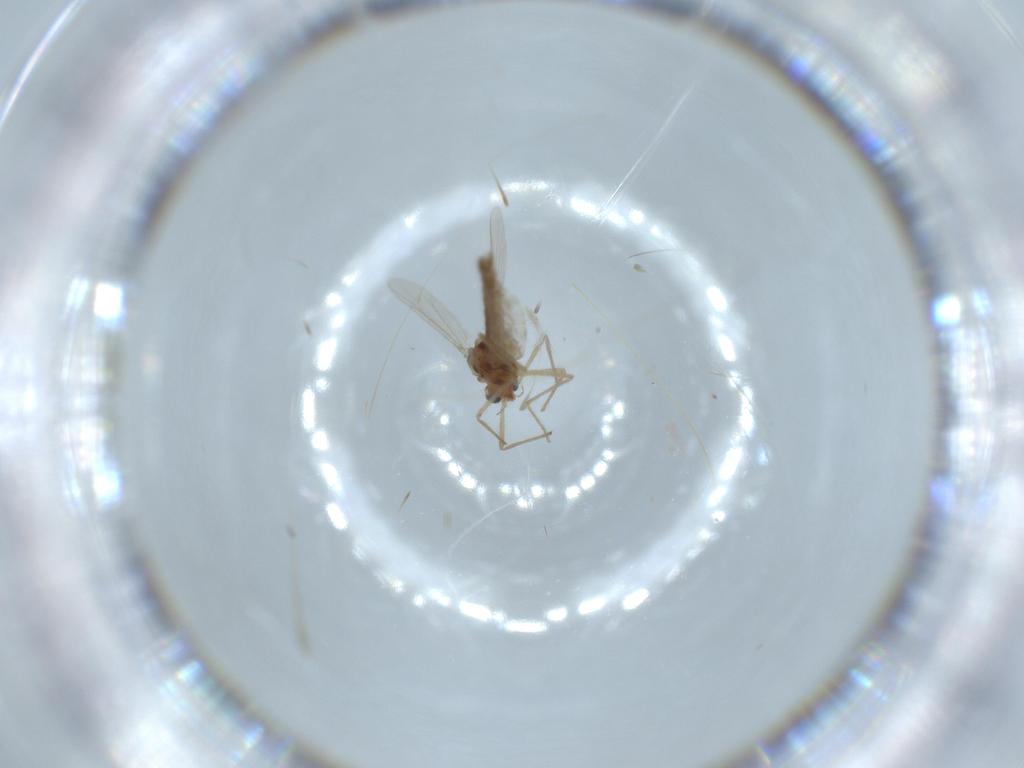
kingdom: Animalia
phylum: Arthropoda
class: Insecta
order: Diptera
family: Chironomidae
